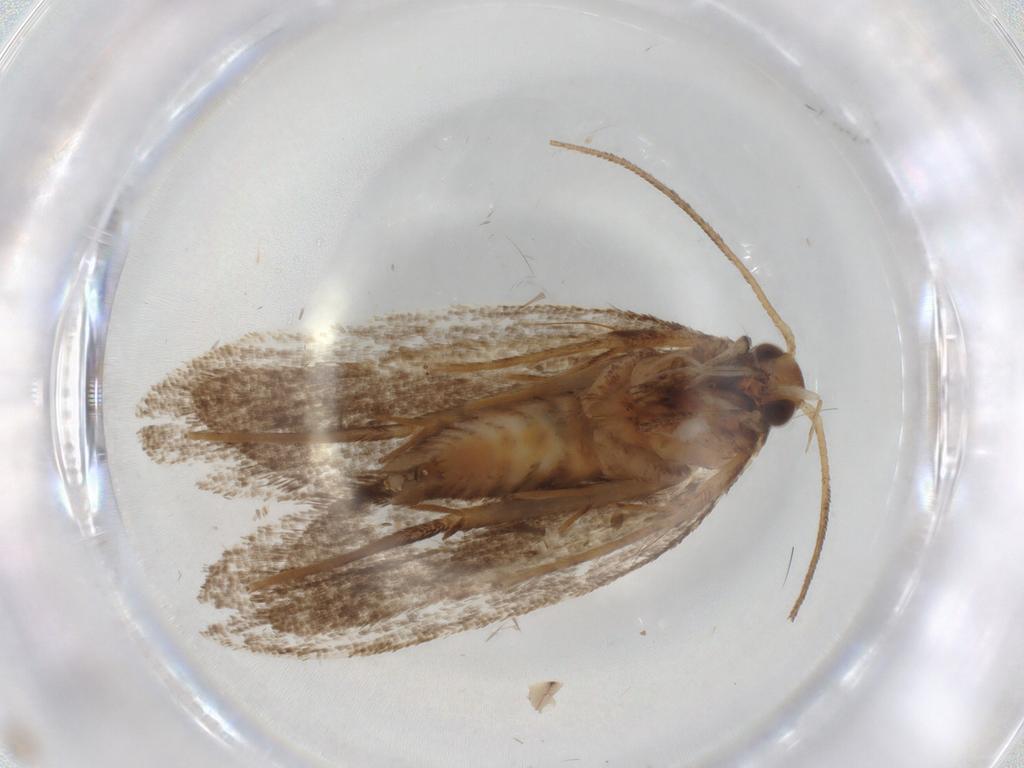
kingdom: Animalia
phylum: Arthropoda
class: Insecta
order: Lepidoptera
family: Oecophoridae
